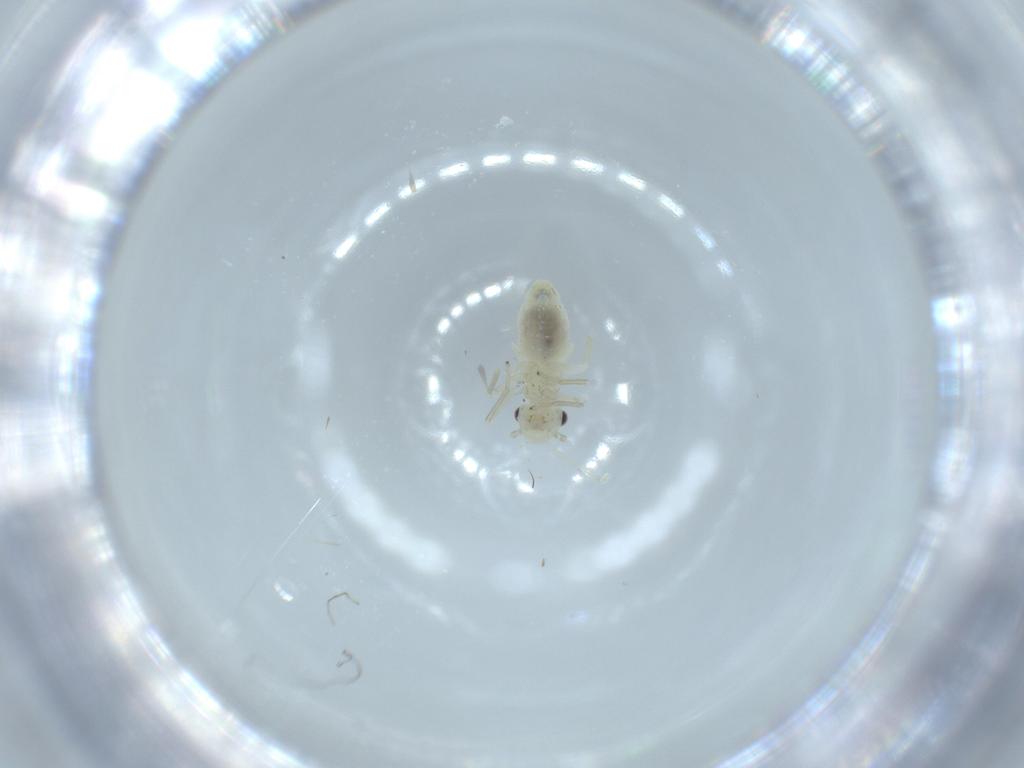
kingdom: Animalia
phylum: Arthropoda
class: Insecta
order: Psocodea
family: Caeciliusidae
